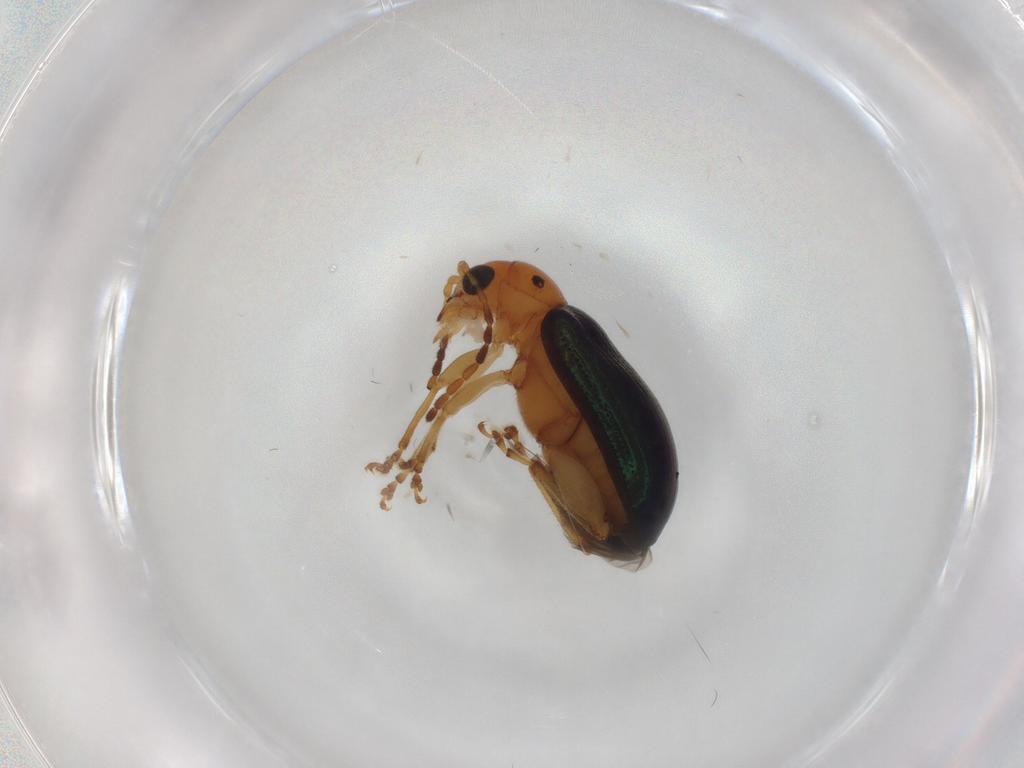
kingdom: Animalia
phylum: Arthropoda
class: Insecta
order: Coleoptera
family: Chrysomelidae
